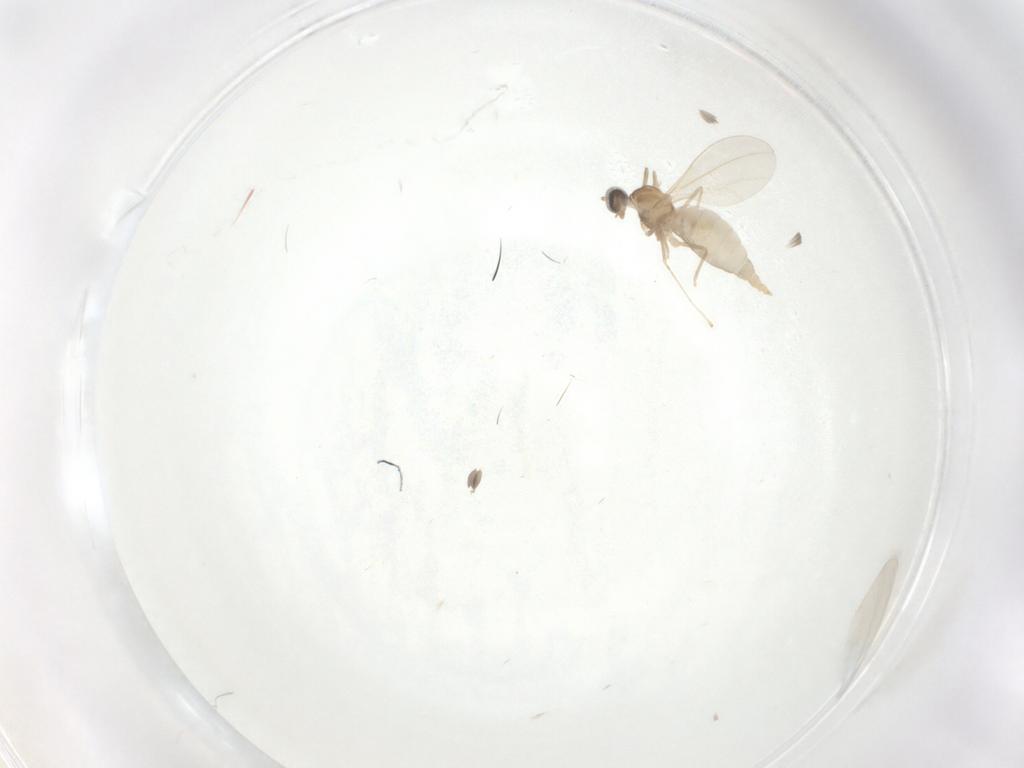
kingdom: Animalia
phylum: Arthropoda
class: Insecta
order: Diptera
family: Cecidomyiidae
